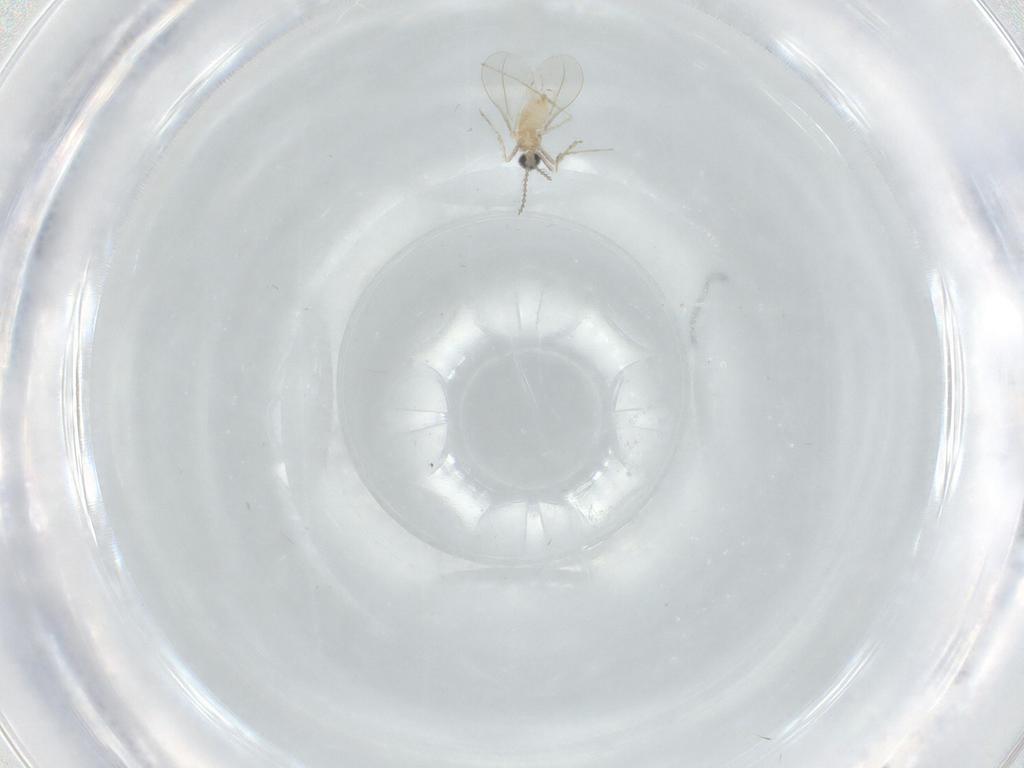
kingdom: Animalia
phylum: Arthropoda
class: Insecta
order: Diptera
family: Cecidomyiidae
